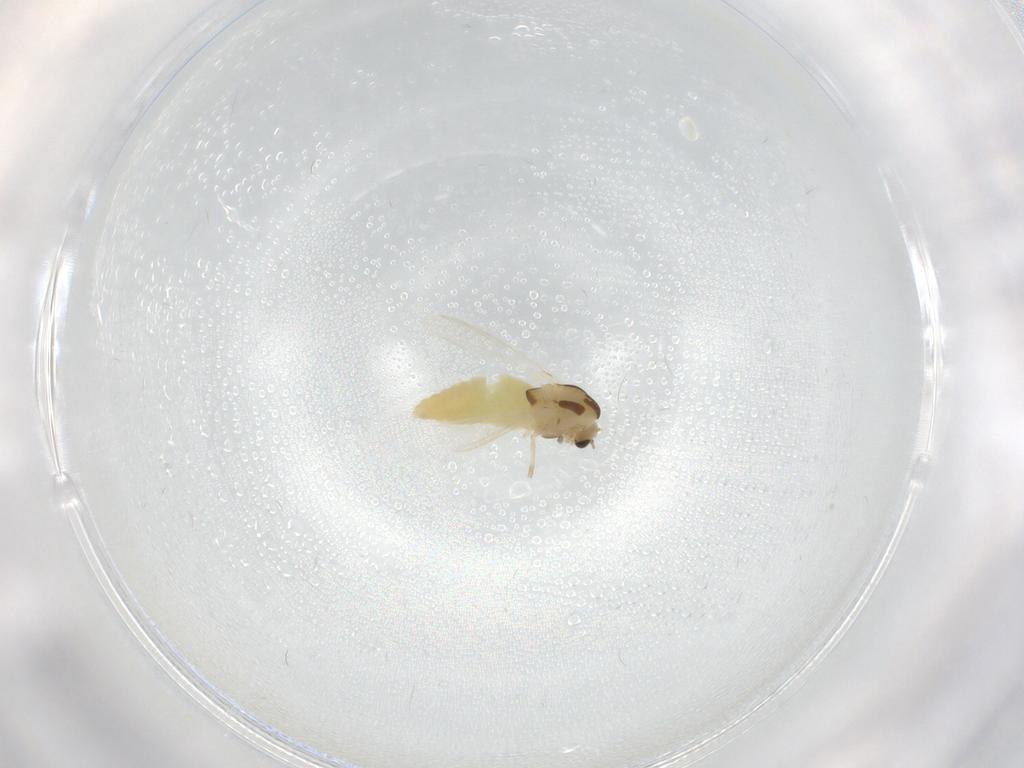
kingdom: Animalia
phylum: Arthropoda
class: Insecta
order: Diptera
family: Chironomidae
